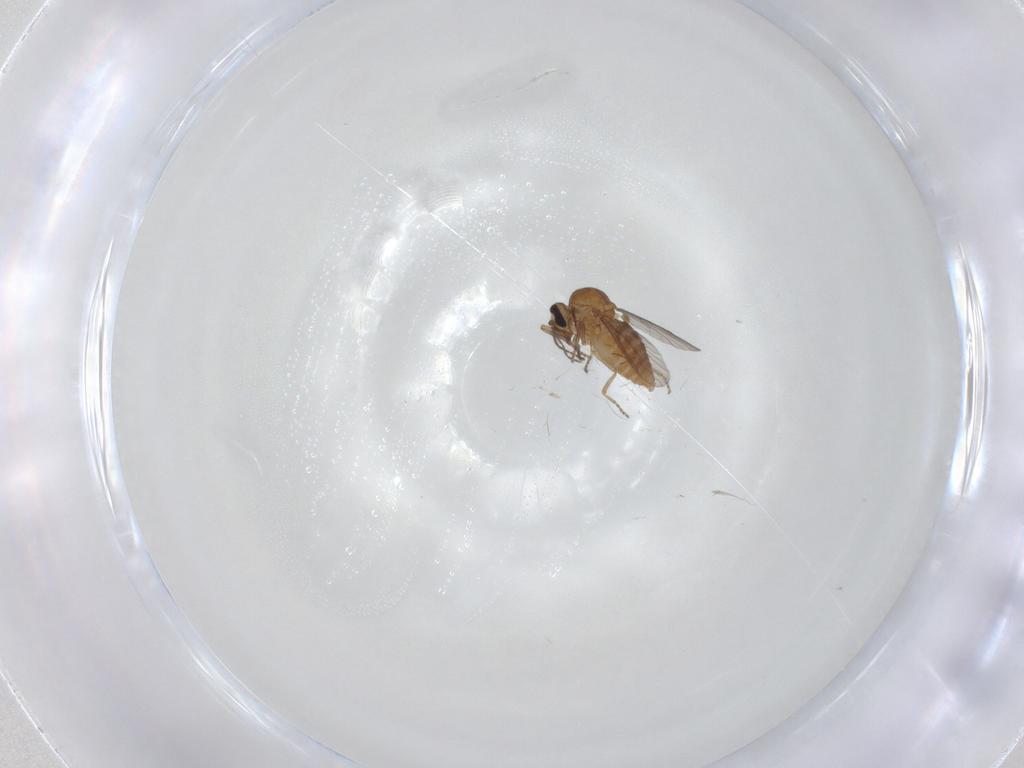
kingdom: Animalia
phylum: Arthropoda
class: Insecta
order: Diptera
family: Ceratopogonidae
